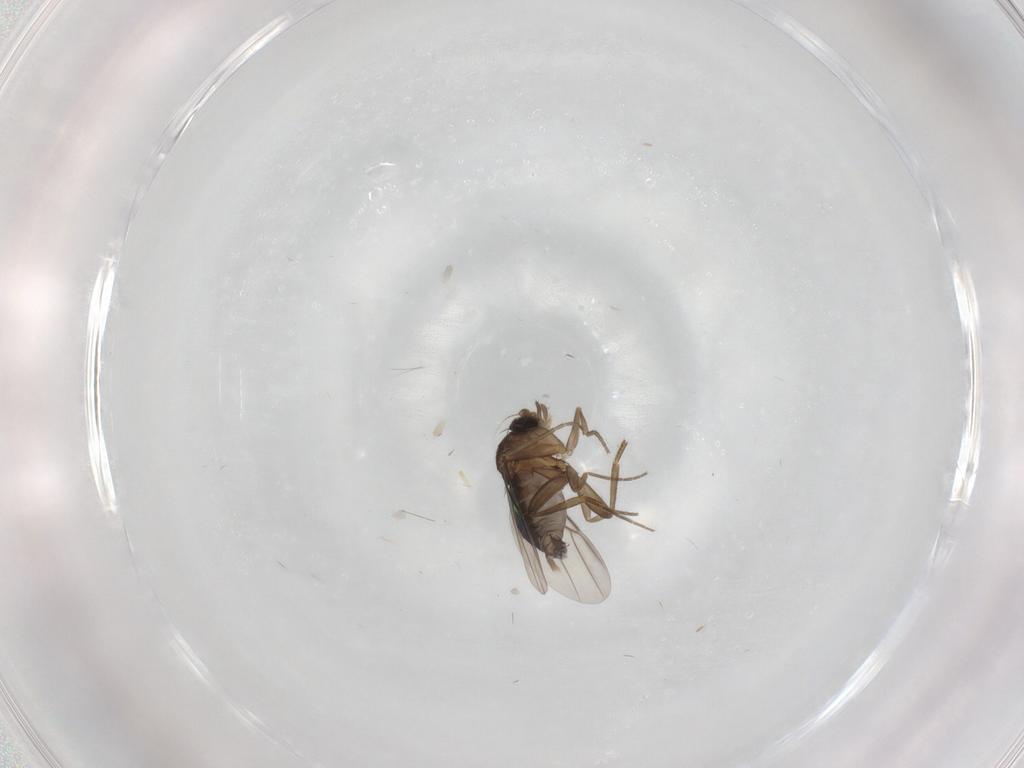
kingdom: Animalia
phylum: Arthropoda
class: Insecta
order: Diptera
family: Phoridae
